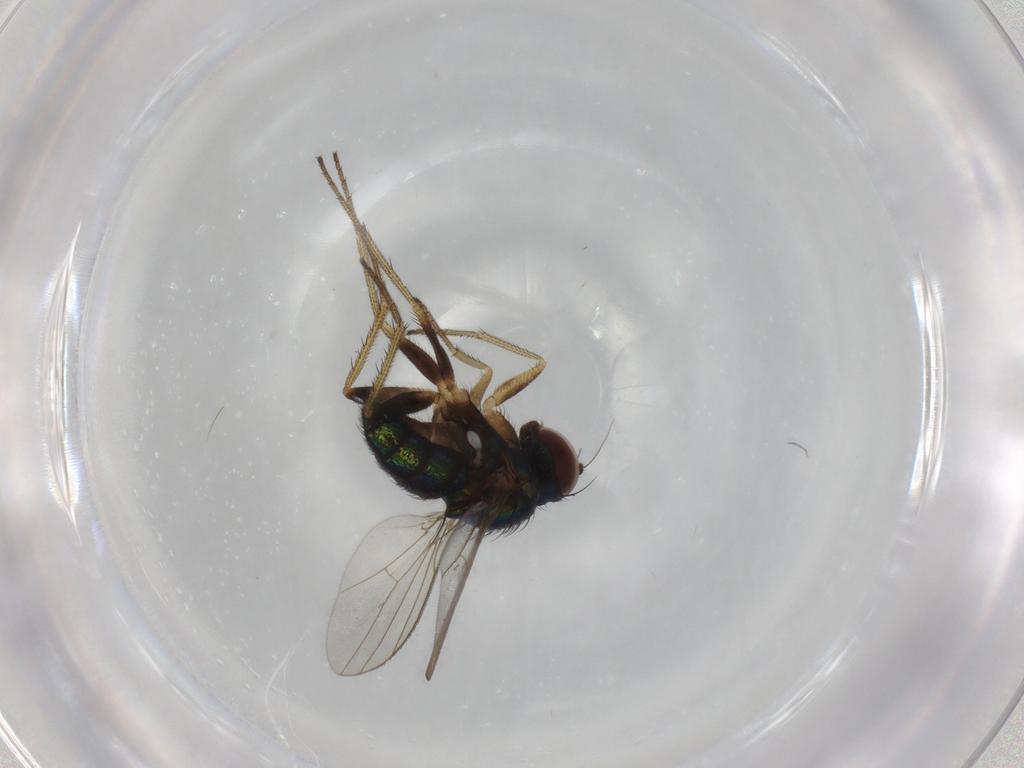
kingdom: Animalia
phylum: Arthropoda
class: Insecta
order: Diptera
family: Dolichopodidae
